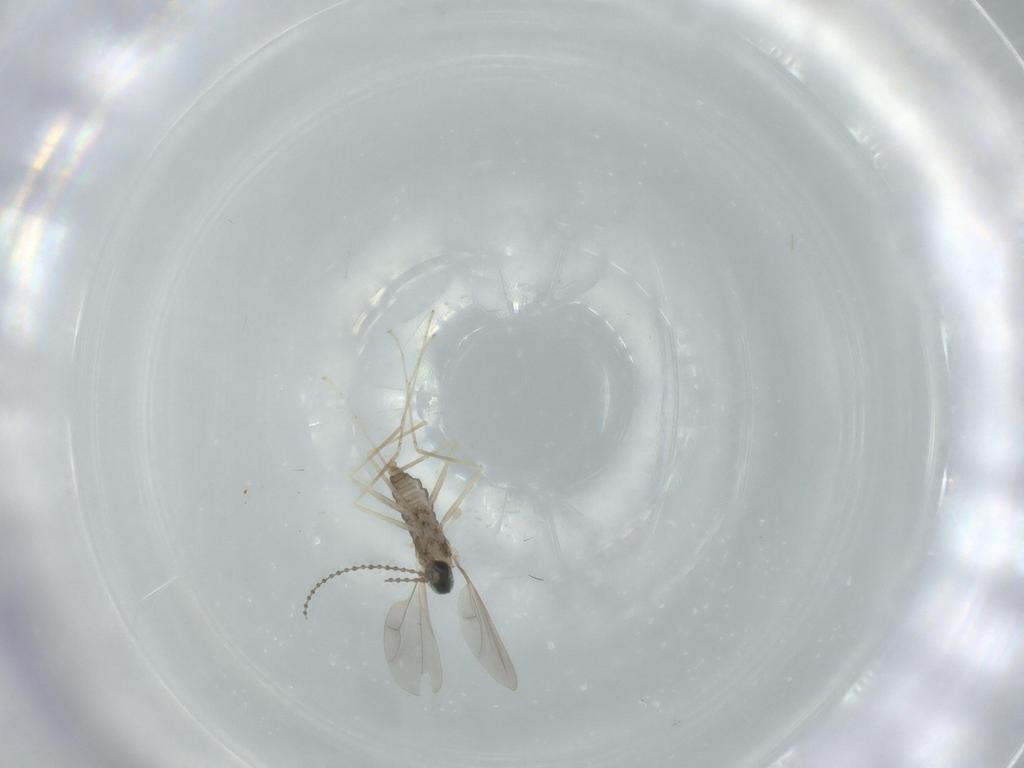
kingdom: Animalia
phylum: Arthropoda
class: Insecta
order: Diptera
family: Cecidomyiidae
